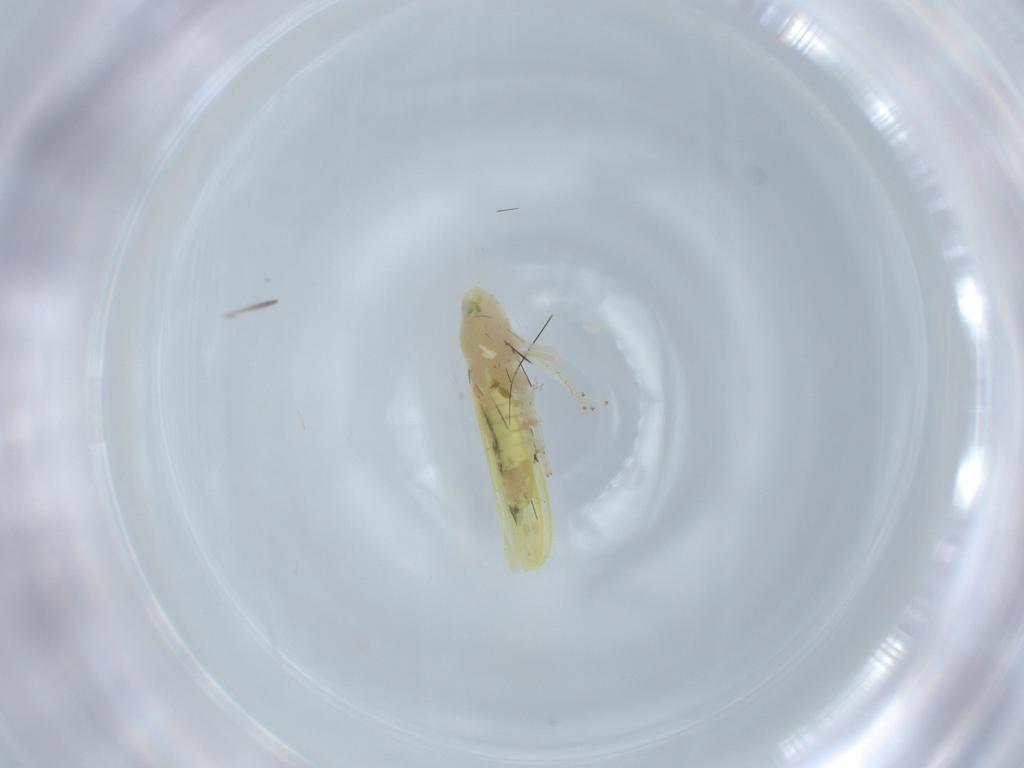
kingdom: Animalia
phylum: Arthropoda
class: Insecta
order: Hemiptera
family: Cicadellidae
